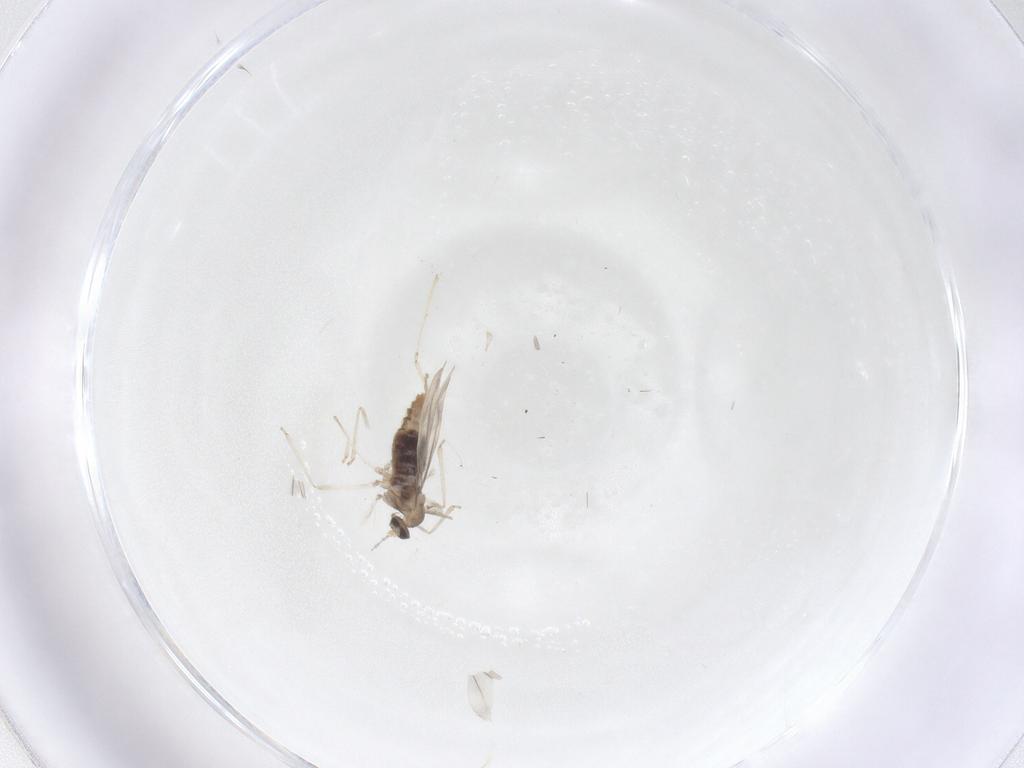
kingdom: Animalia
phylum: Arthropoda
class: Insecta
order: Diptera
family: Cecidomyiidae
